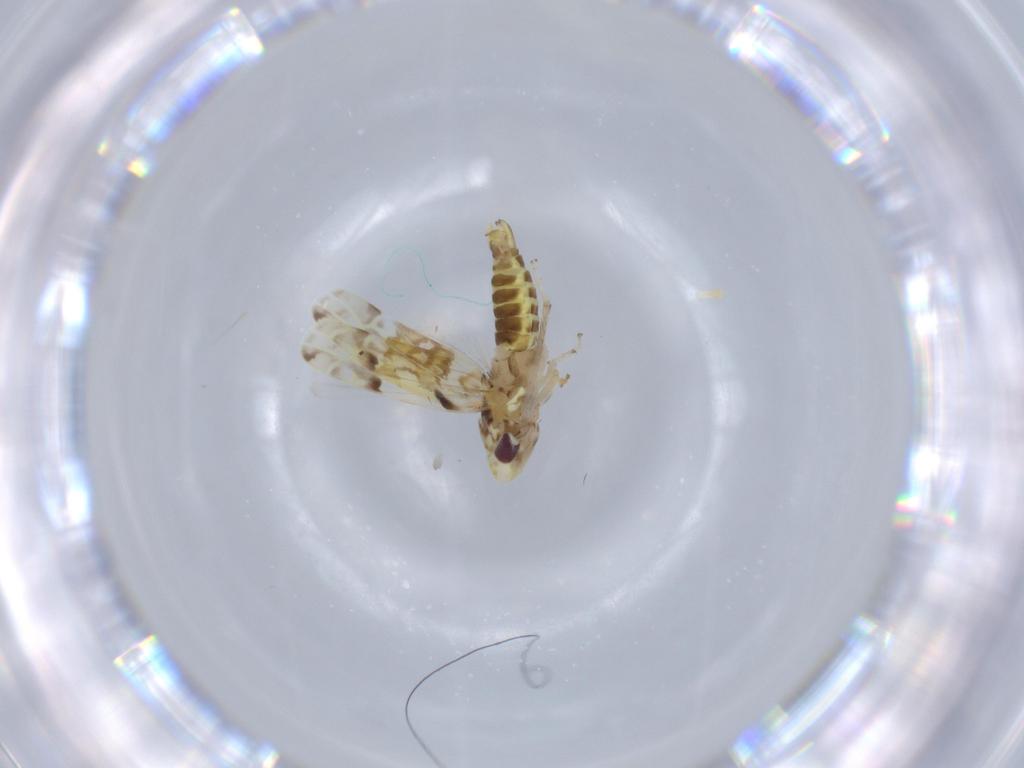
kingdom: Animalia
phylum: Arthropoda
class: Insecta
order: Hemiptera
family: Cicadellidae
